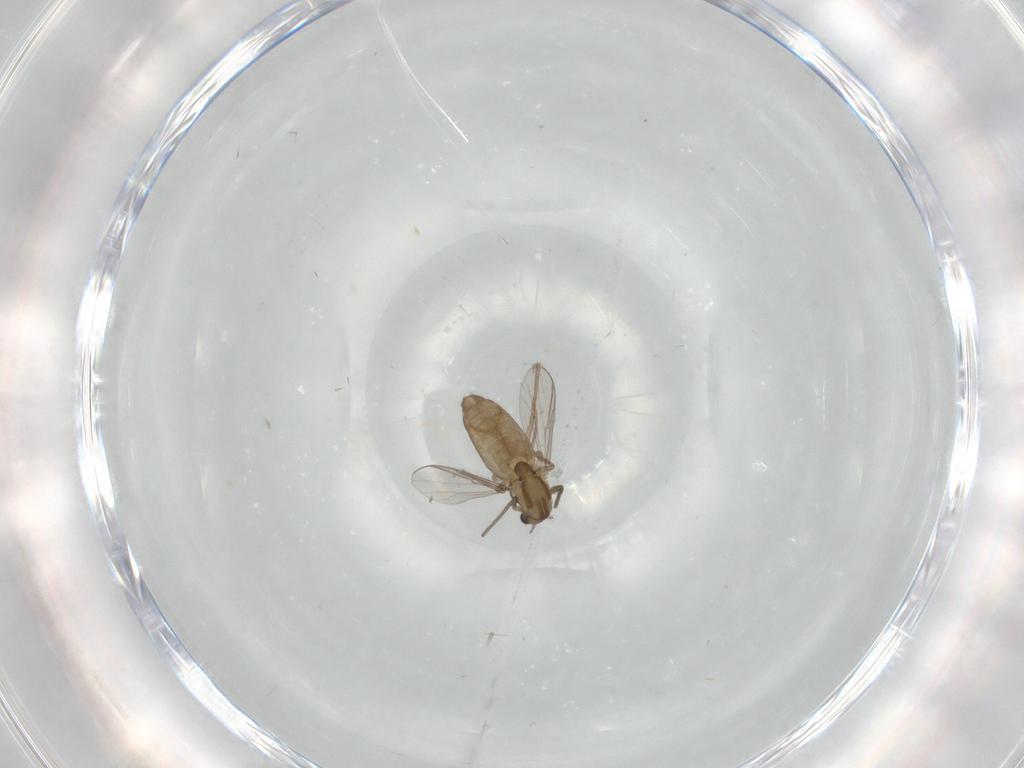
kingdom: Animalia
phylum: Arthropoda
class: Insecta
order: Diptera
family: Chironomidae
